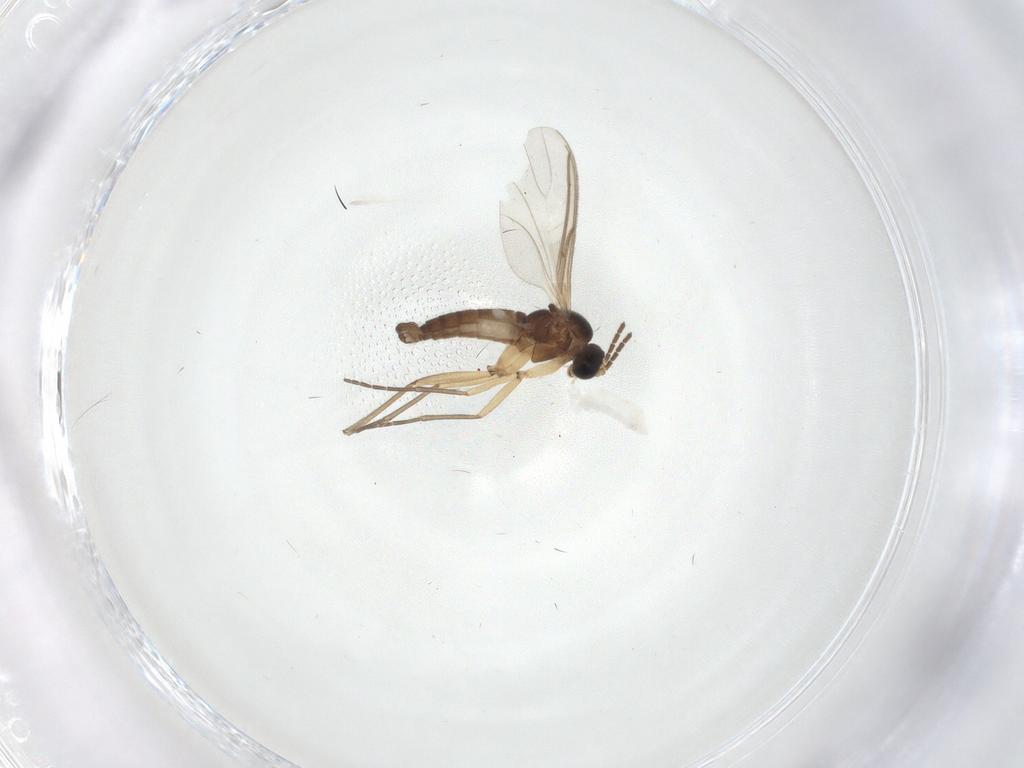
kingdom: Animalia
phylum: Arthropoda
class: Insecta
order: Diptera
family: Sciaridae
